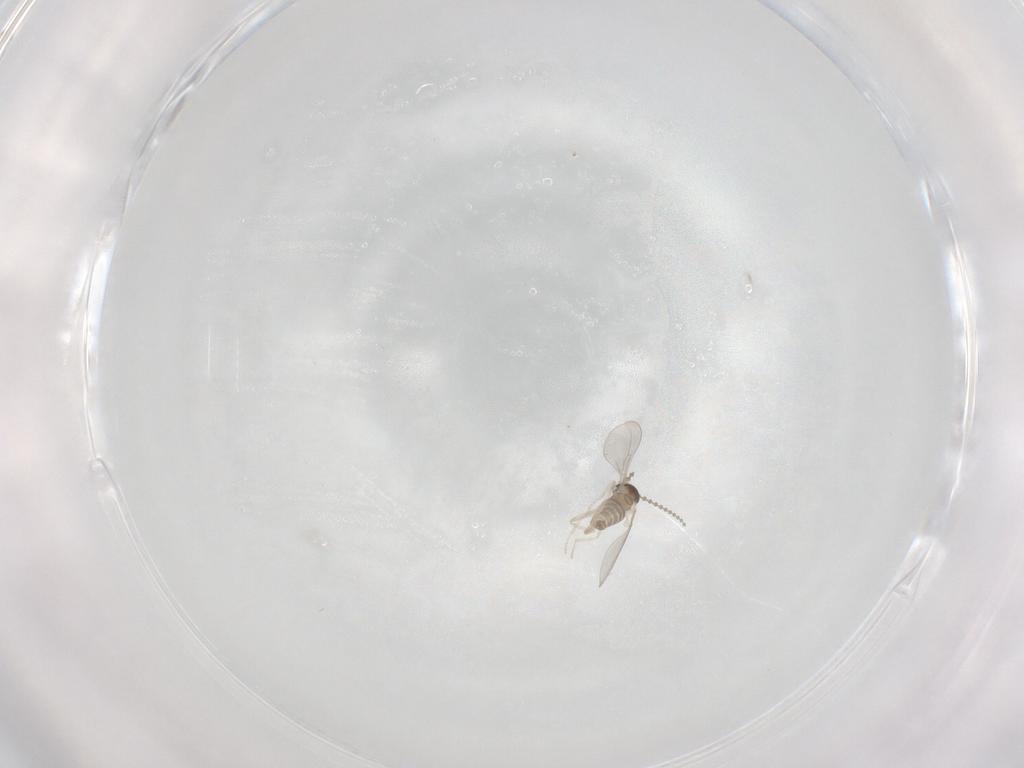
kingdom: Animalia
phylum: Arthropoda
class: Insecta
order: Diptera
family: Cecidomyiidae
